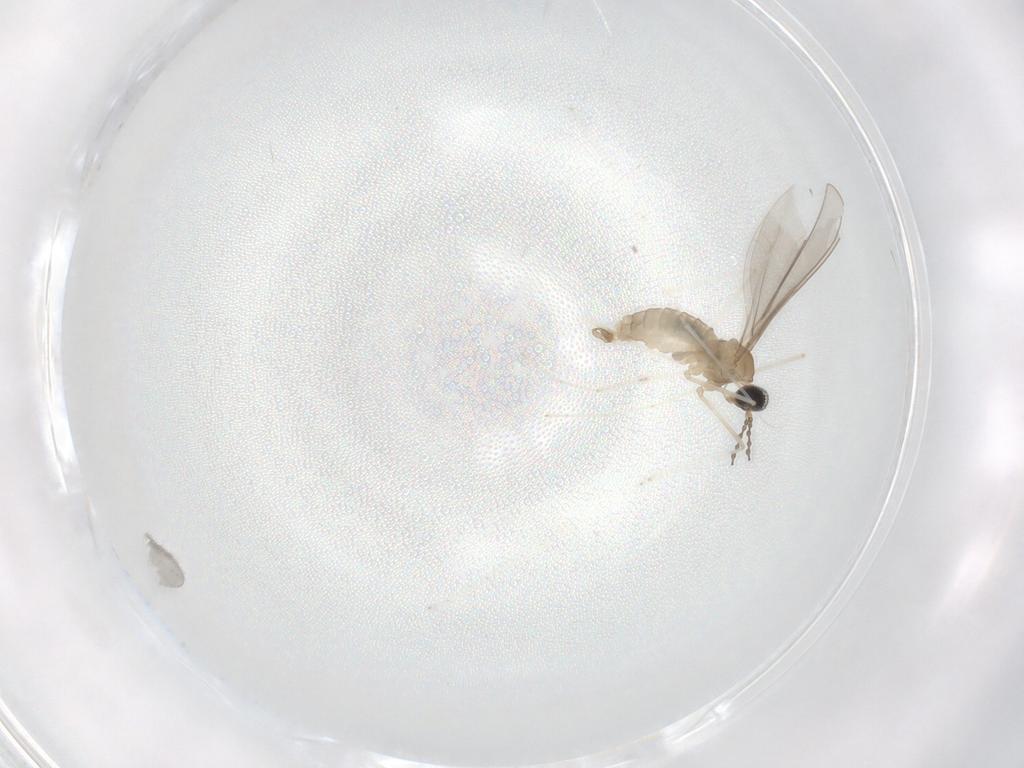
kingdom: Animalia
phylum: Arthropoda
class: Insecta
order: Diptera
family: Cecidomyiidae
